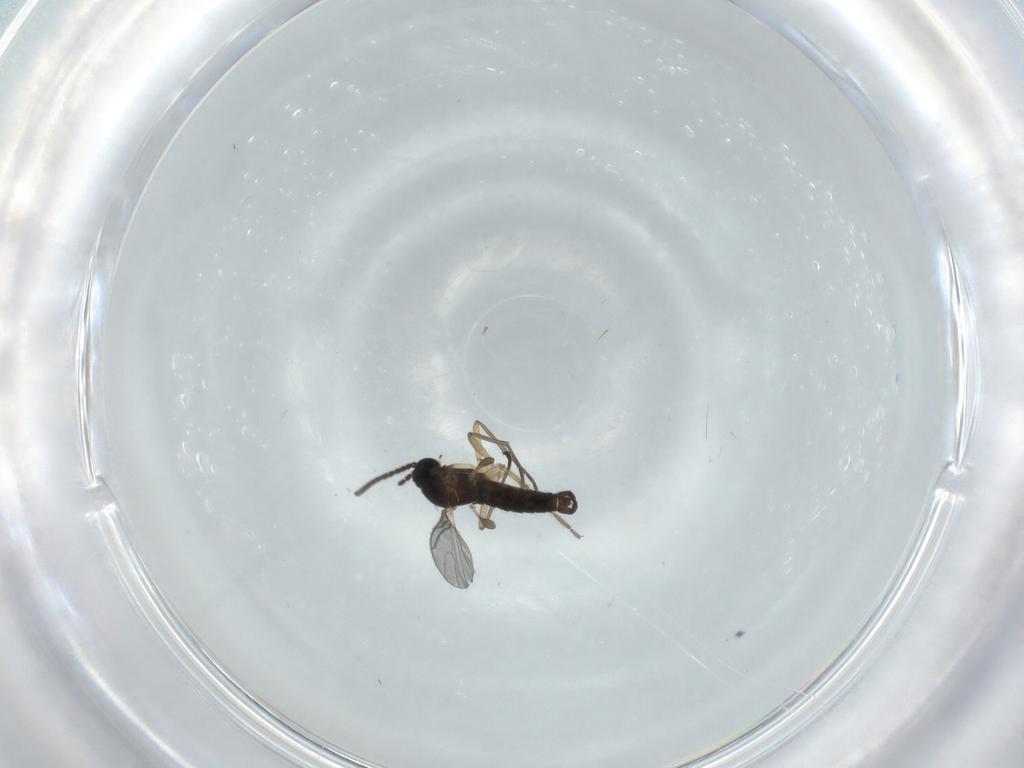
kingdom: Animalia
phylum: Arthropoda
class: Insecta
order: Diptera
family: Sciaridae
